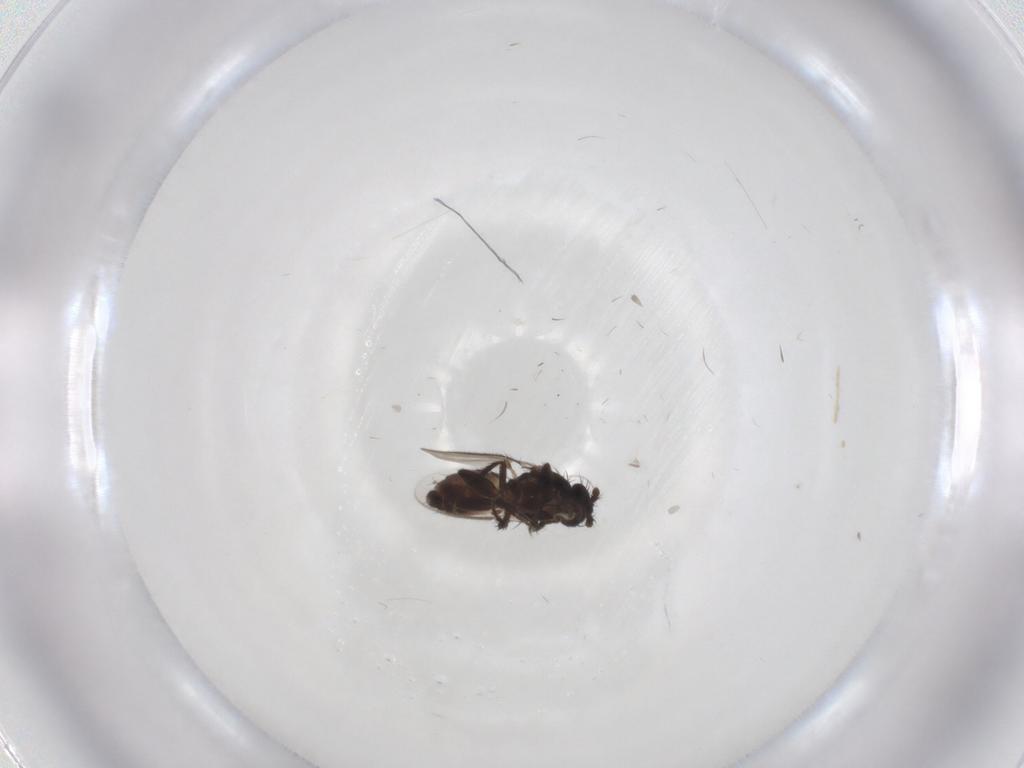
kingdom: Animalia
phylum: Arthropoda
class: Insecta
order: Diptera
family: Sphaeroceridae
